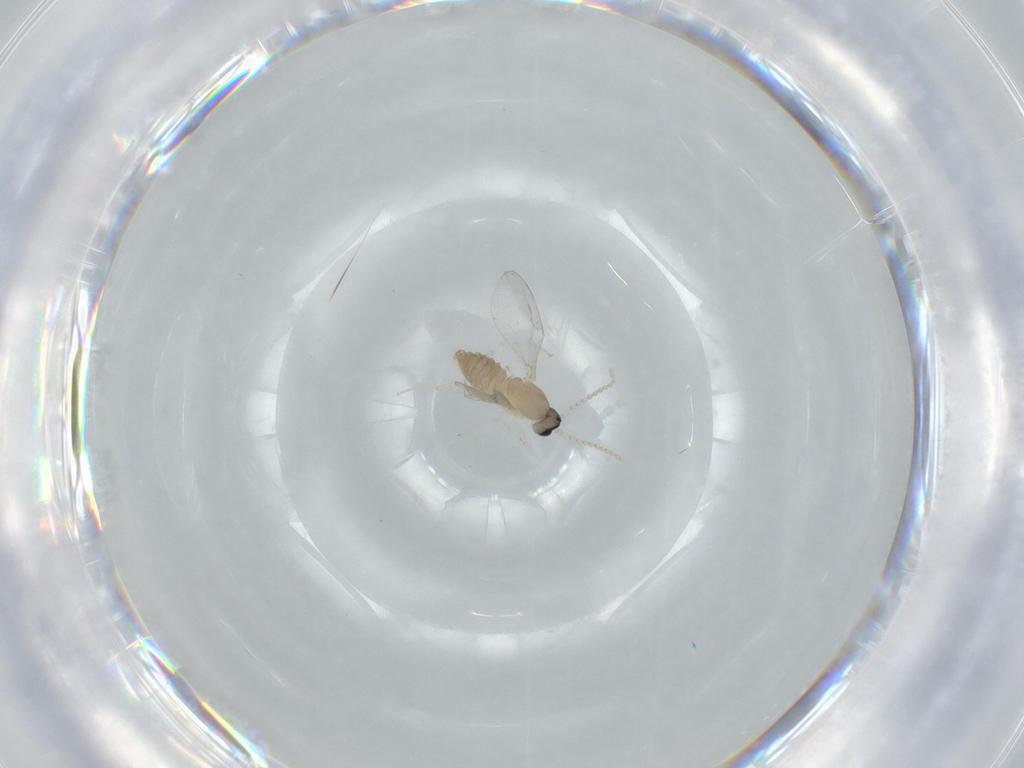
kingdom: Animalia
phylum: Arthropoda
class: Insecta
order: Diptera
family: Cecidomyiidae
